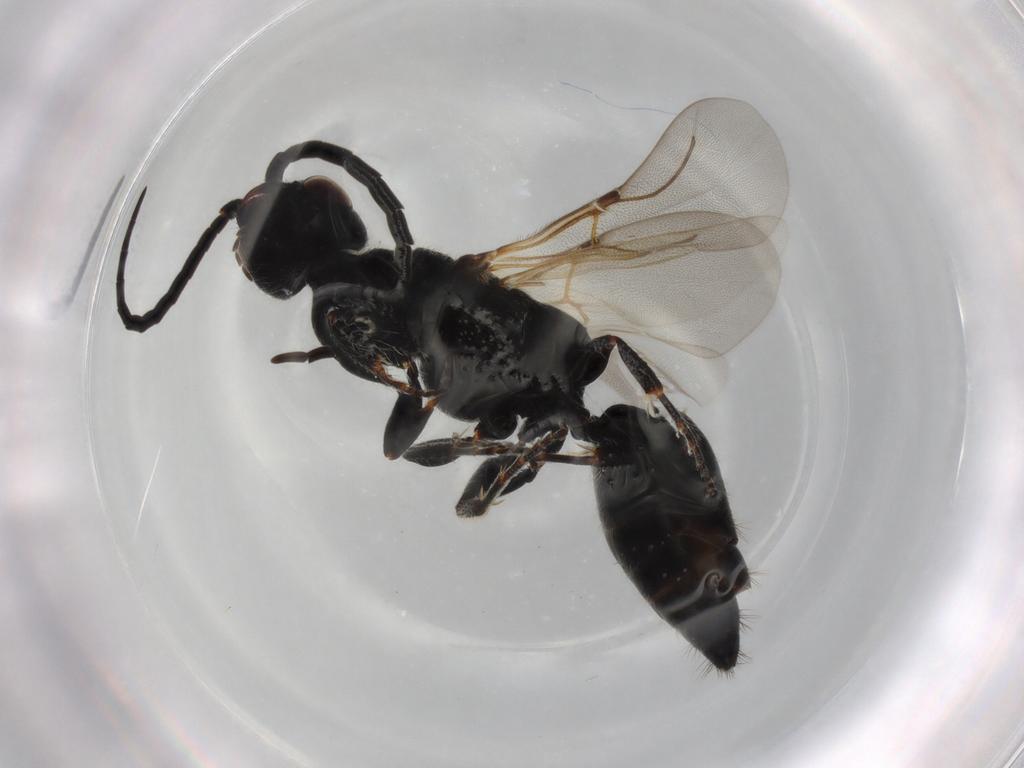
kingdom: Animalia
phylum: Arthropoda
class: Insecta
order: Hymenoptera
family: Bethylidae
